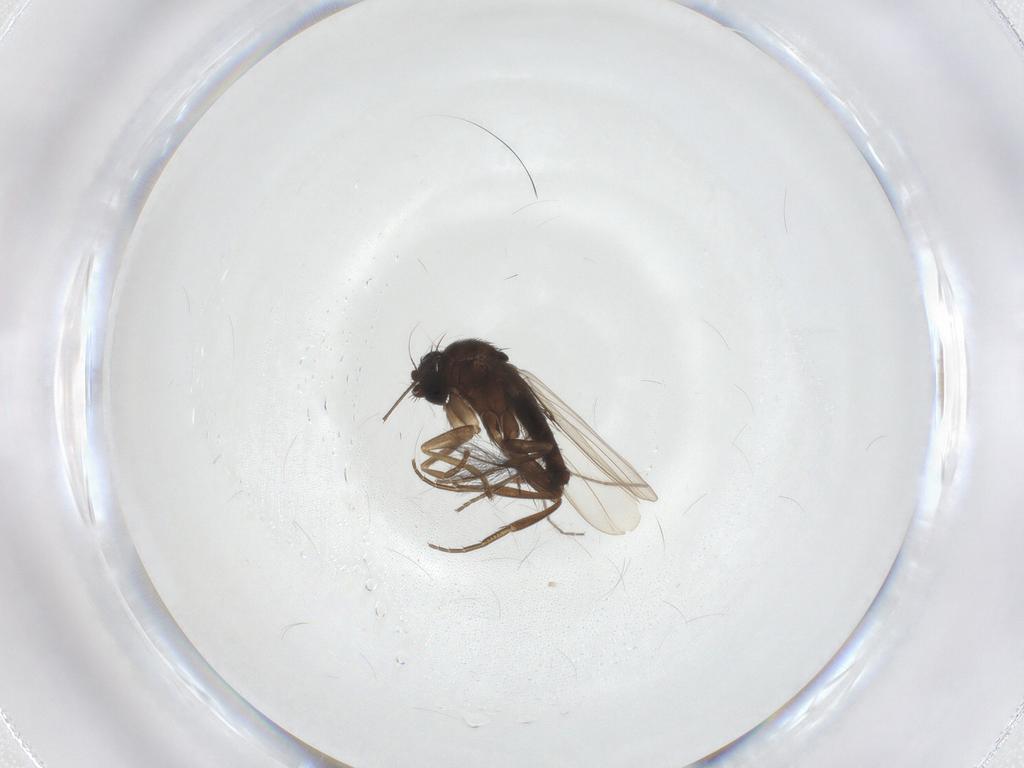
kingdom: Animalia
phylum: Arthropoda
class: Insecta
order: Diptera
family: Phoridae
